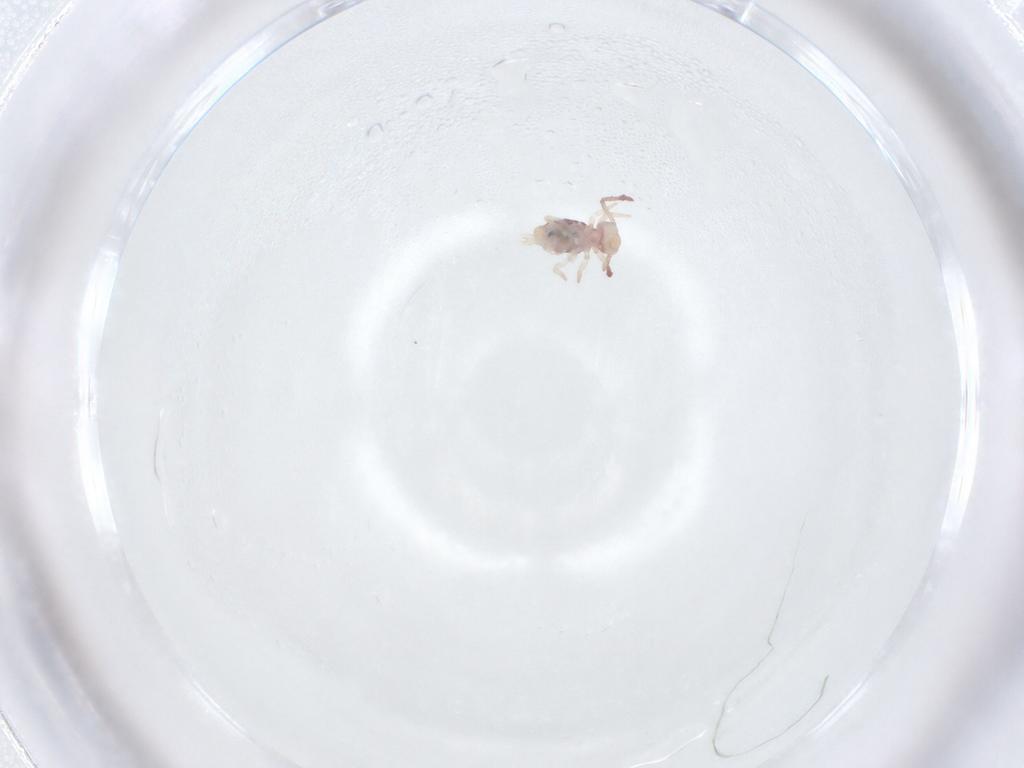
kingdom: Animalia
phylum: Arthropoda
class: Collembola
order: Symphypleona
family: Dicyrtomidae
